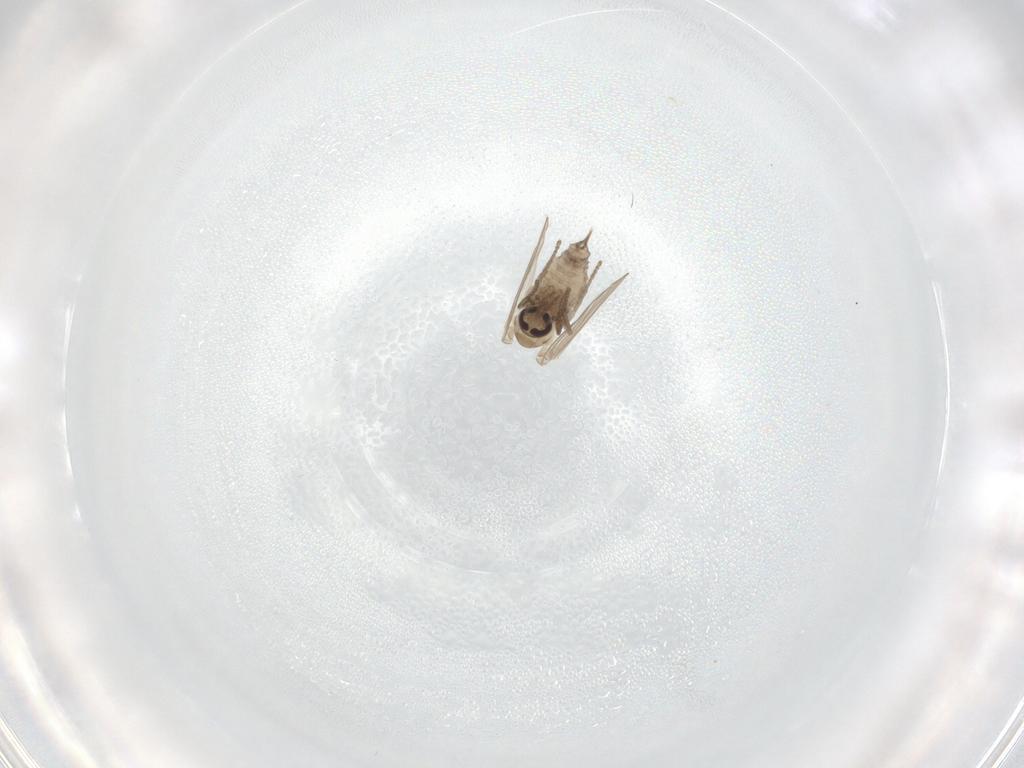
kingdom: Animalia
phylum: Arthropoda
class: Insecta
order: Diptera
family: Psychodidae
